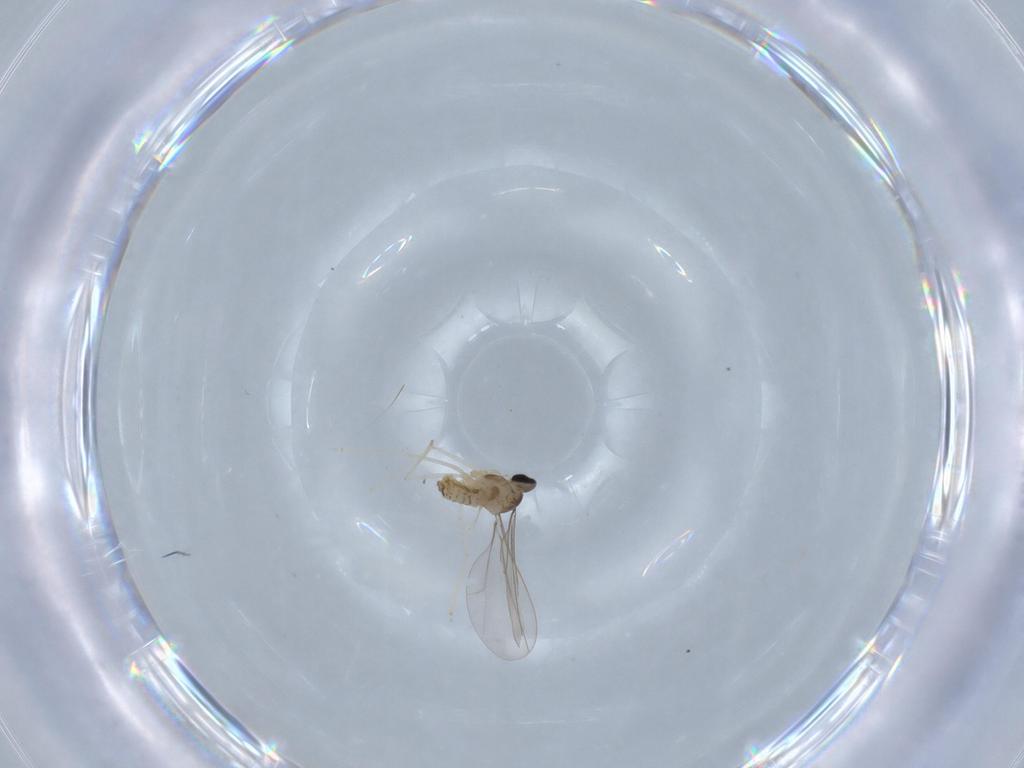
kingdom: Animalia
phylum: Arthropoda
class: Insecta
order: Diptera
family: Cecidomyiidae
